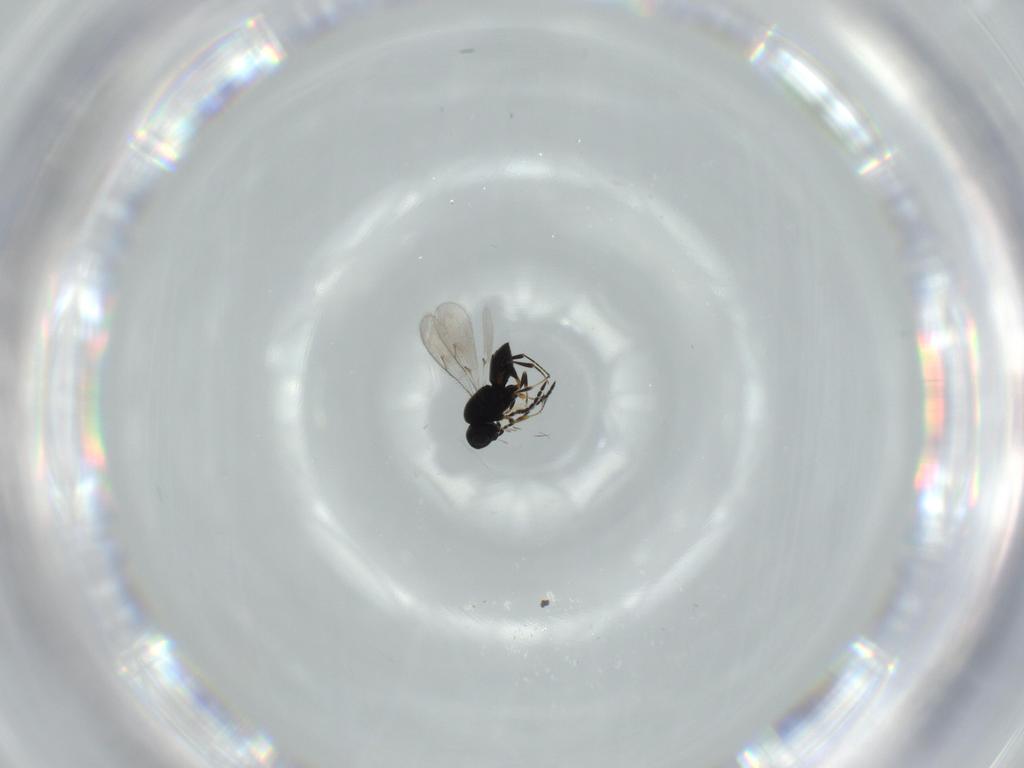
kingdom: Animalia
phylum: Arthropoda
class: Insecta
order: Hymenoptera
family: Scelionidae
